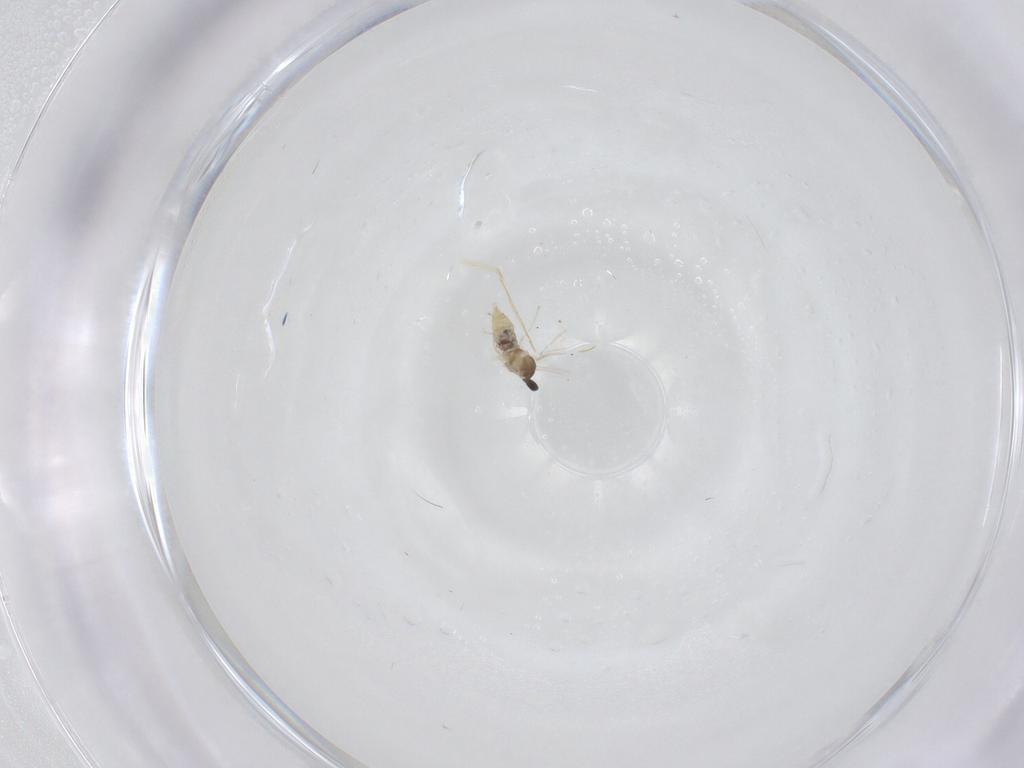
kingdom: Animalia
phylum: Arthropoda
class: Insecta
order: Diptera
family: Cecidomyiidae
